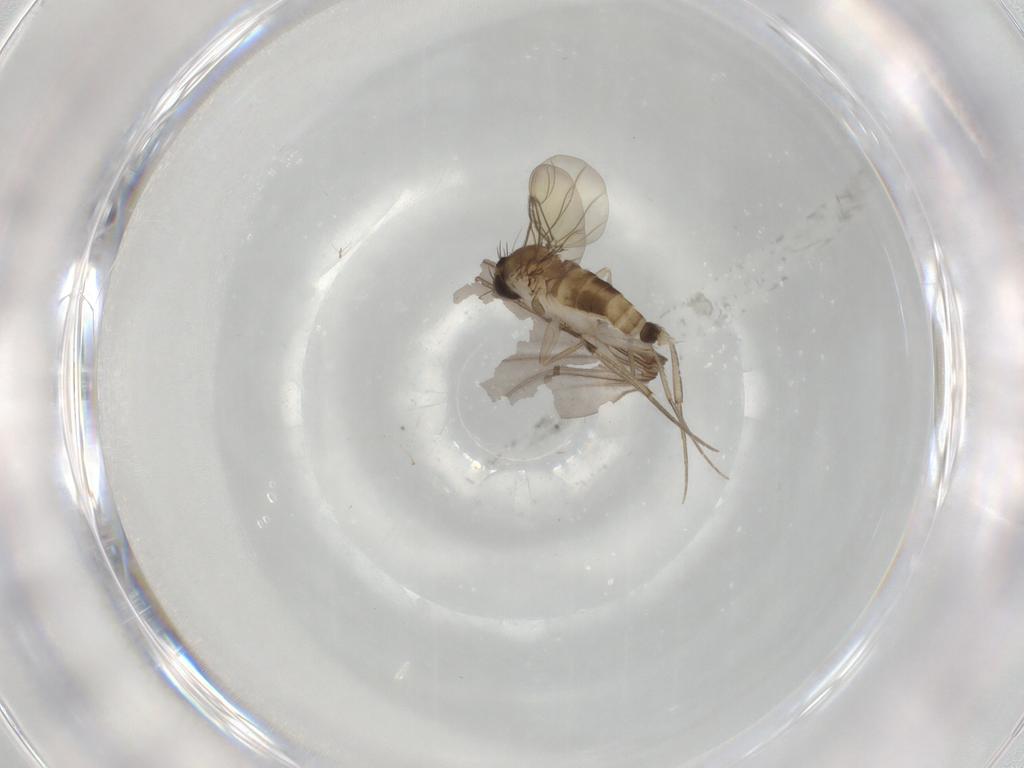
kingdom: Animalia
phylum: Arthropoda
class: Insecta
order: Diptera
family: Chironomidae
